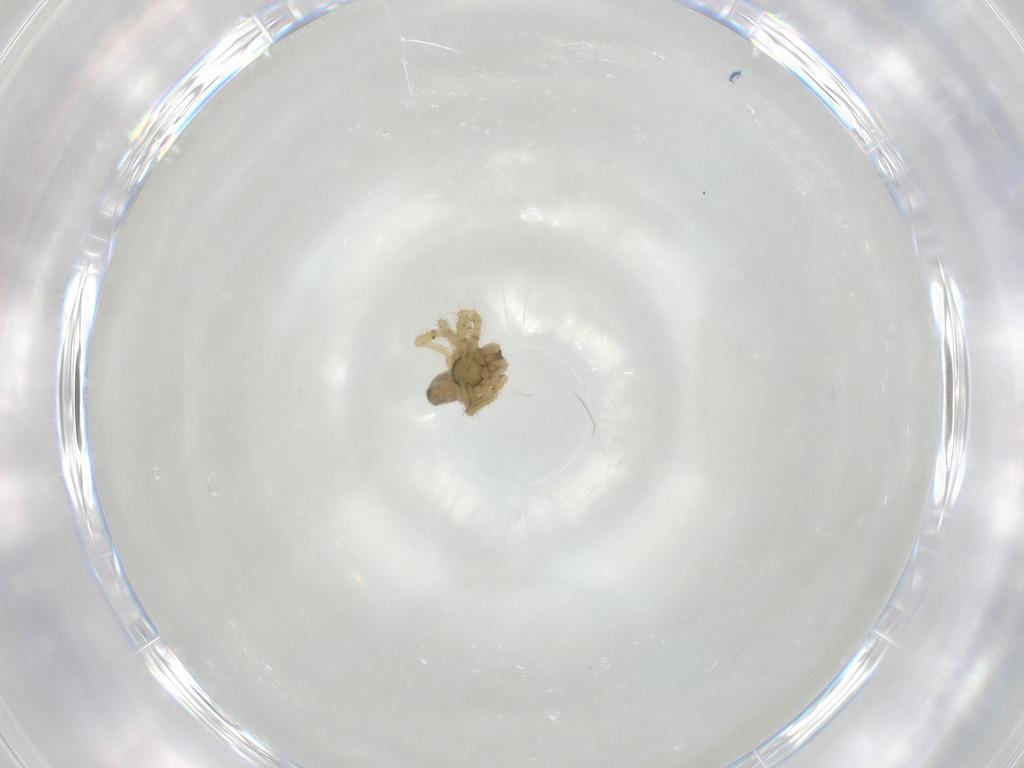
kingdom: Animalia
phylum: Arthropoda
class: Arachnida
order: Araneae
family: Theridiidae
